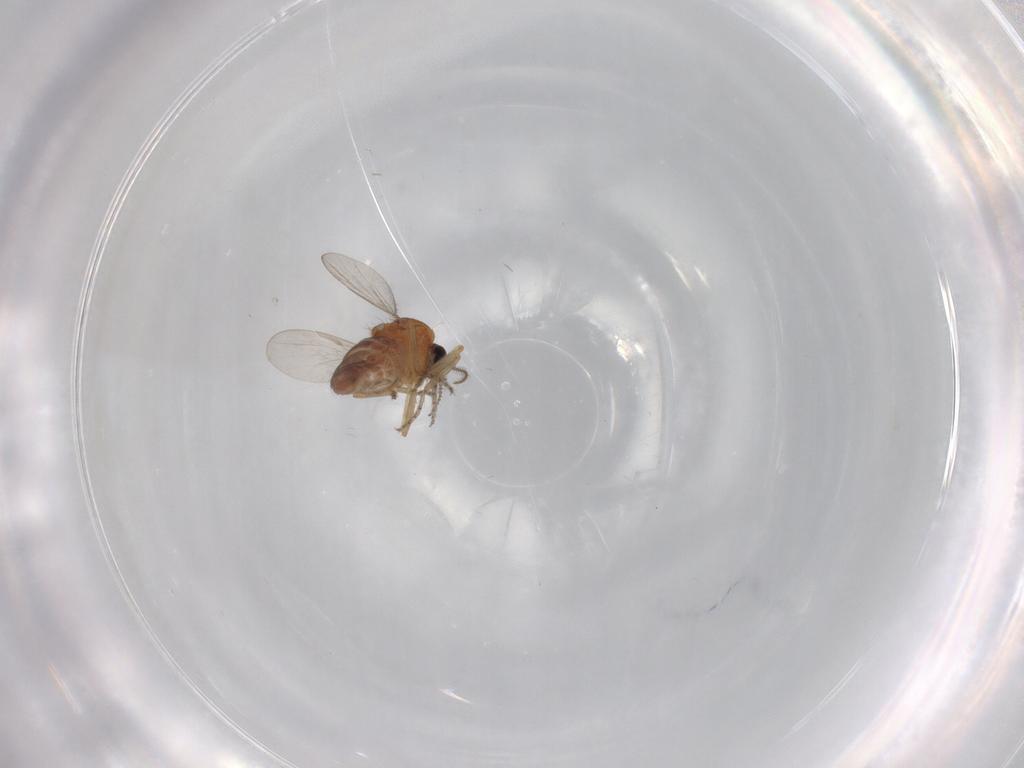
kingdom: Animalia
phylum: Arthropoda
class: Insecta
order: Diptera
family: Ceratopogonidae
